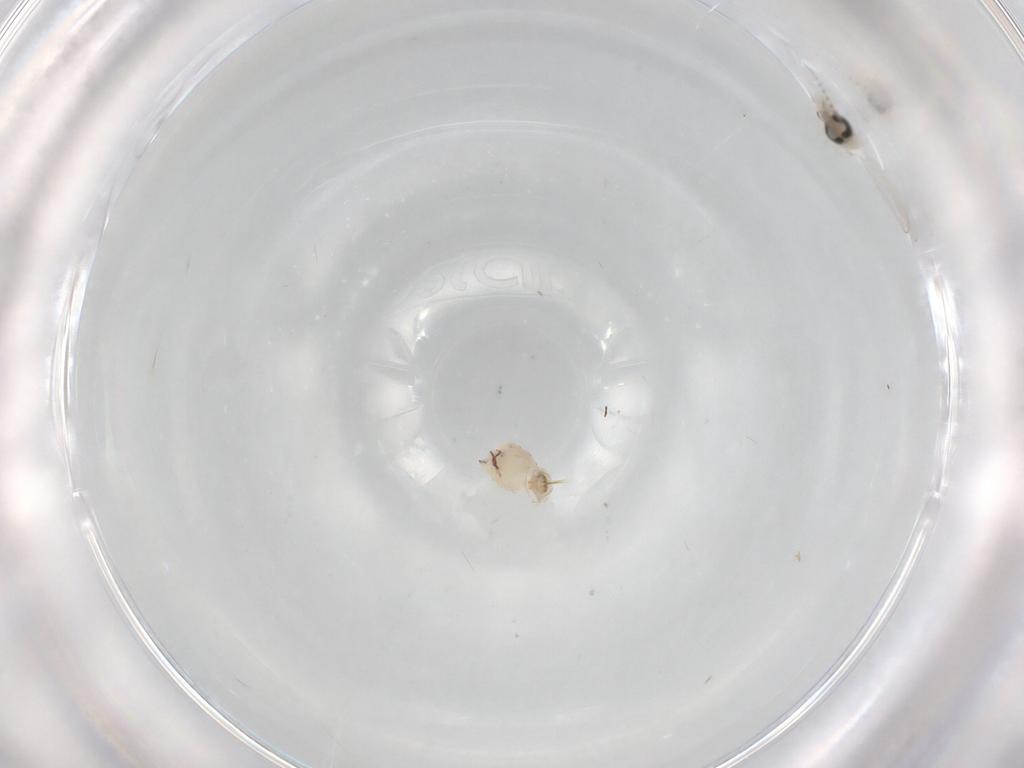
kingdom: Animalia
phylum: Arthropoda
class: Insecta
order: Diptera
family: Psychodidae
